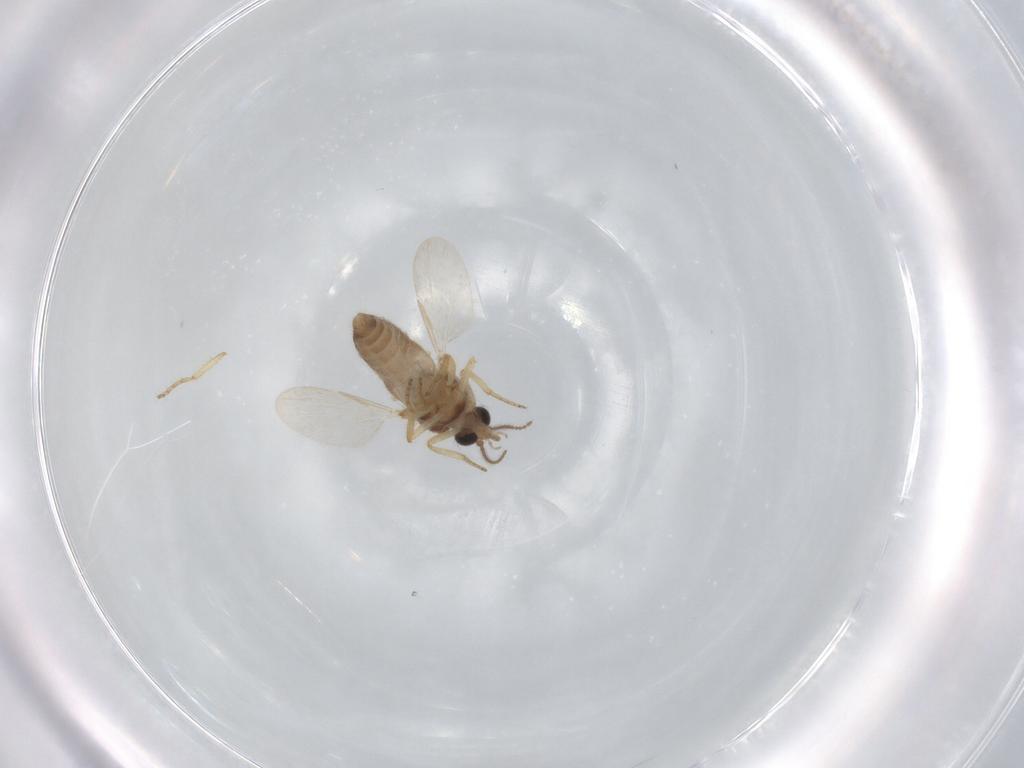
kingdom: Animalia
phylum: Arthropoda
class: Insecta
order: Diptera
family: Ceratopogonidae
